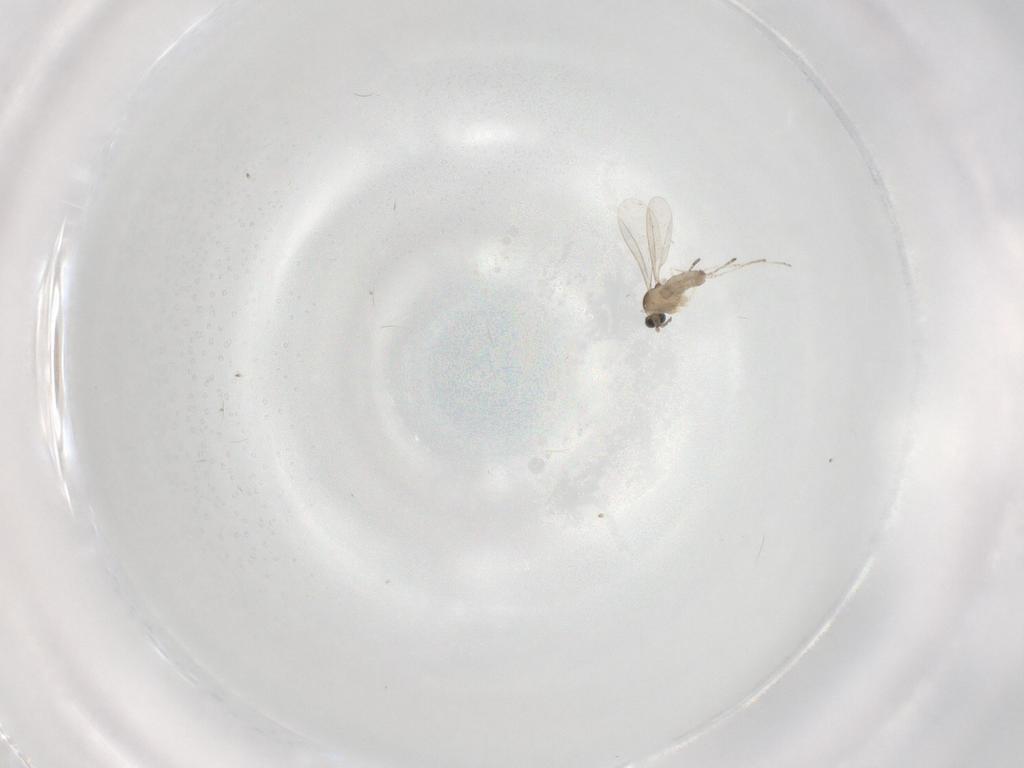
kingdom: Animalia
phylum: Arthropoda
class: Insecta
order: Diptera
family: Cecidomyiidae
